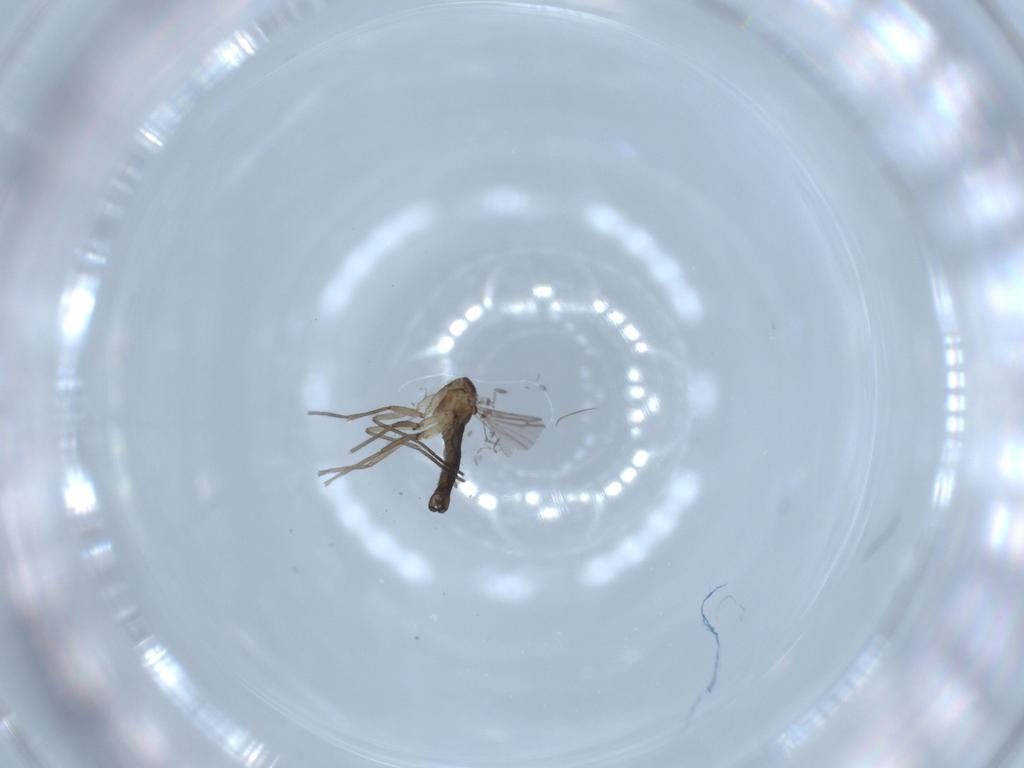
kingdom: Animalia
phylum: Arthropoda
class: Insecta
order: Diptera
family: Sciaridae
